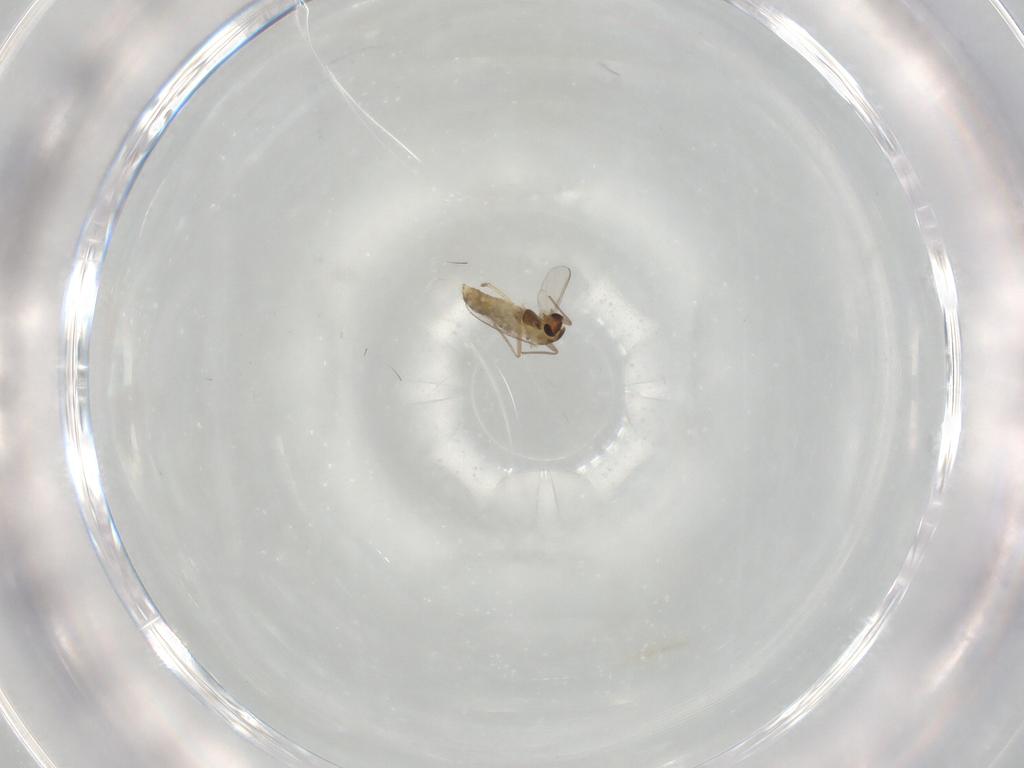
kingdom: Animalia
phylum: Arthropoda
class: Insecta
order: Diptera
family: Chironomidae
